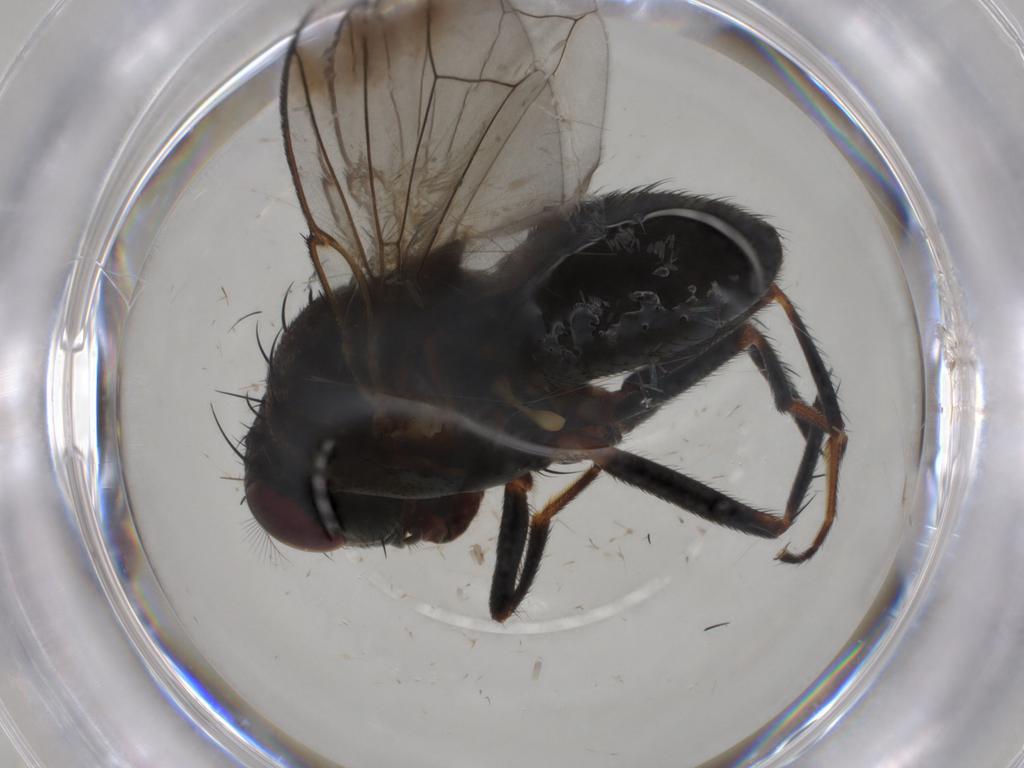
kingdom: Animalia
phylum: Arthropoda
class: Insecta
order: Diptera
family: Ephydridae
